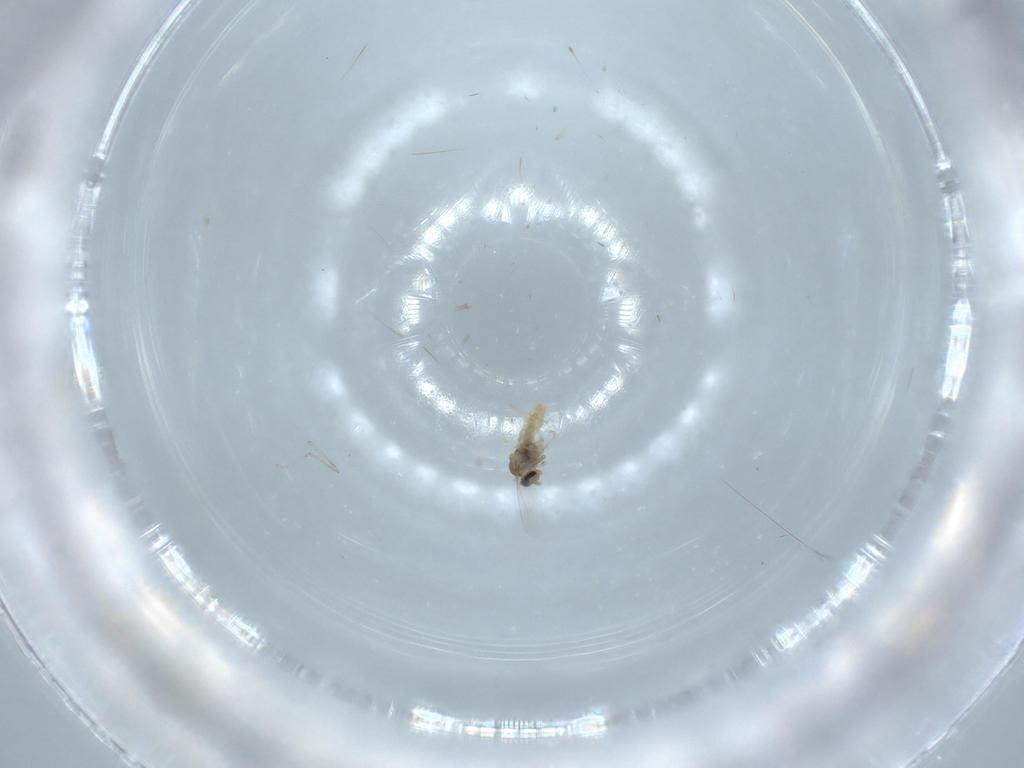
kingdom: Animalia
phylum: Arthropoda
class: Insecta
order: Diptera
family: Cecidomyiidae
